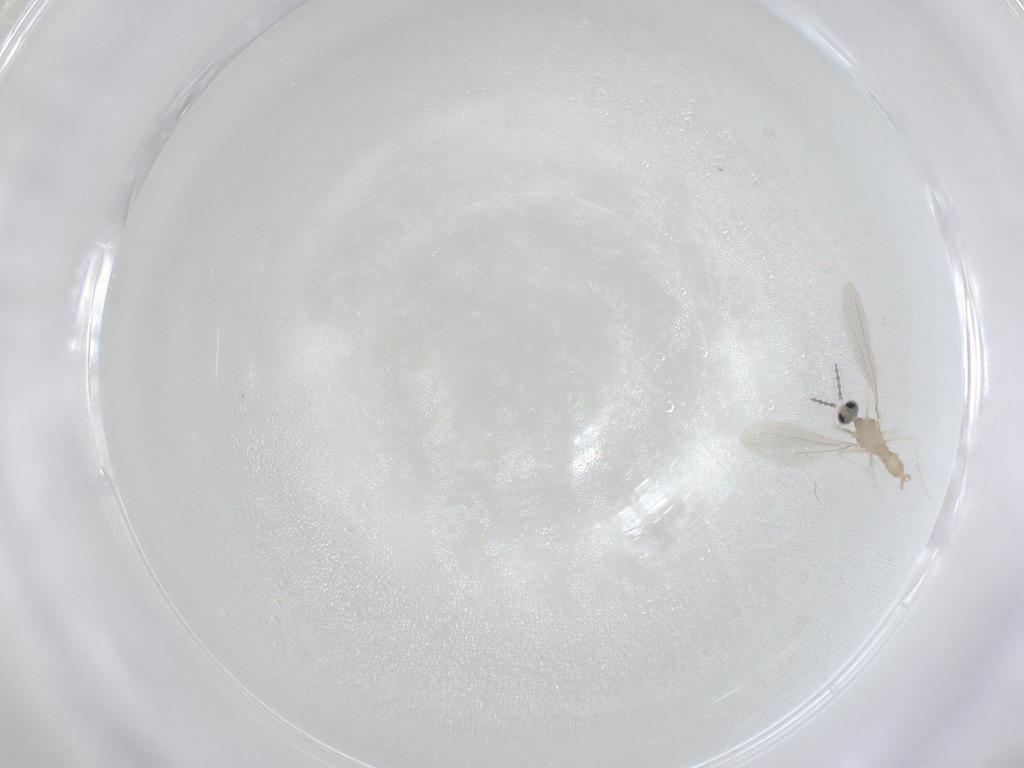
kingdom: Animalia
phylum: Arthropoda
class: Insecta
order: Diptera
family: Cecidomyiidae
